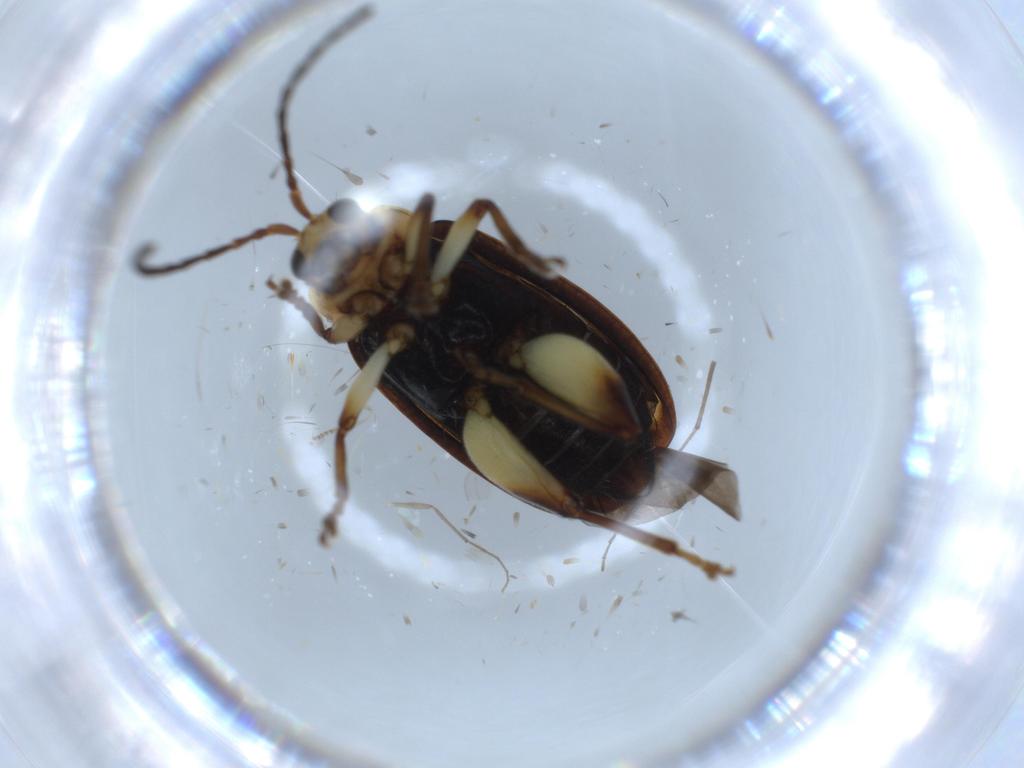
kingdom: Animalia
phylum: Arthropoda
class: Insecta
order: Coleoptera
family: Aderidae
